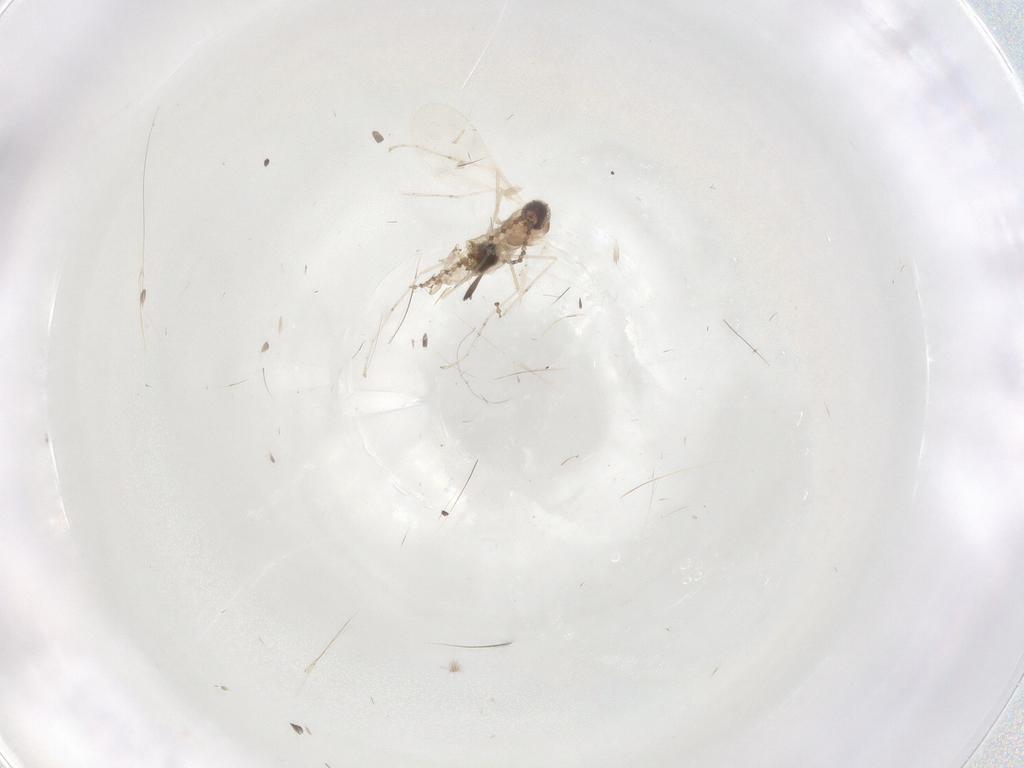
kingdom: Animalia
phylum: Arthropoda
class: Insecta
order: Diptera
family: Cecidomyiidae
